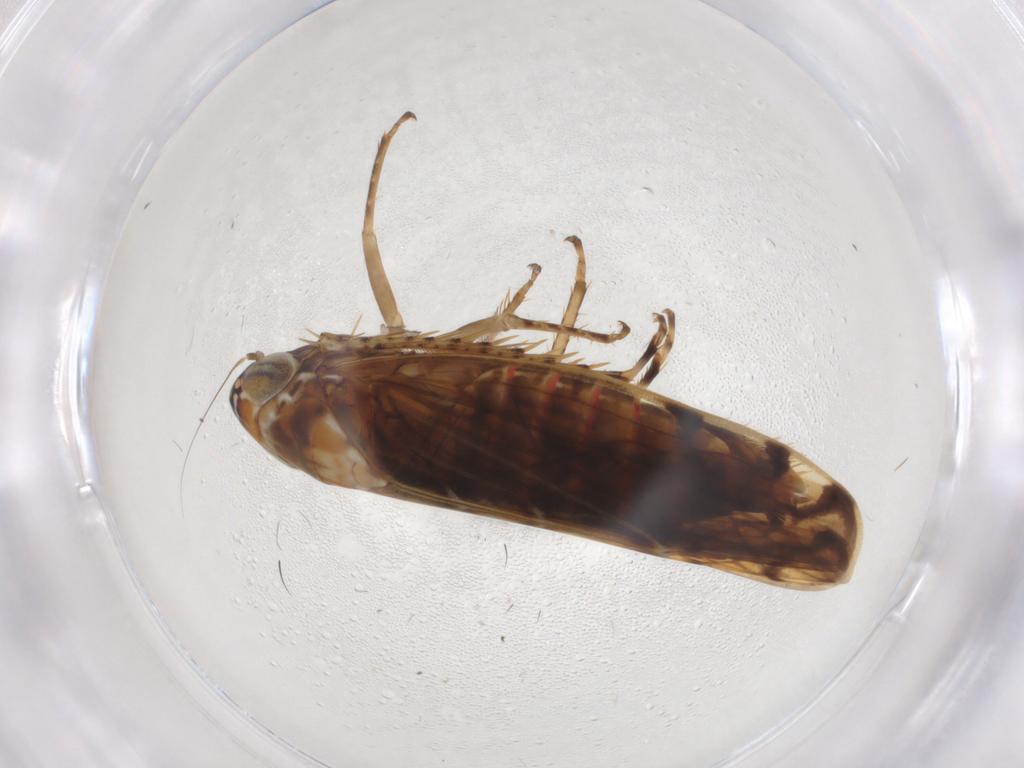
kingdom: Animalia
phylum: Arthropoda
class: Insecta
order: Hemiptera
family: Cicadellidae
